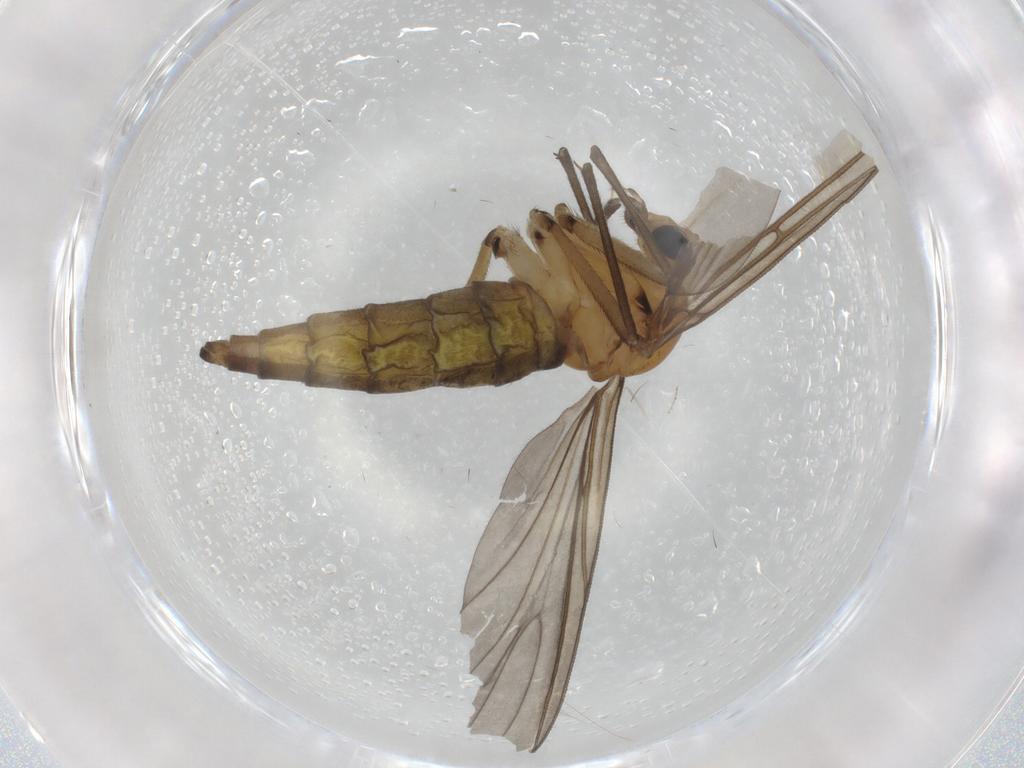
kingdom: Animalia
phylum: Arthropoda
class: Insecta
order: Diptera
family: Sciaridae
